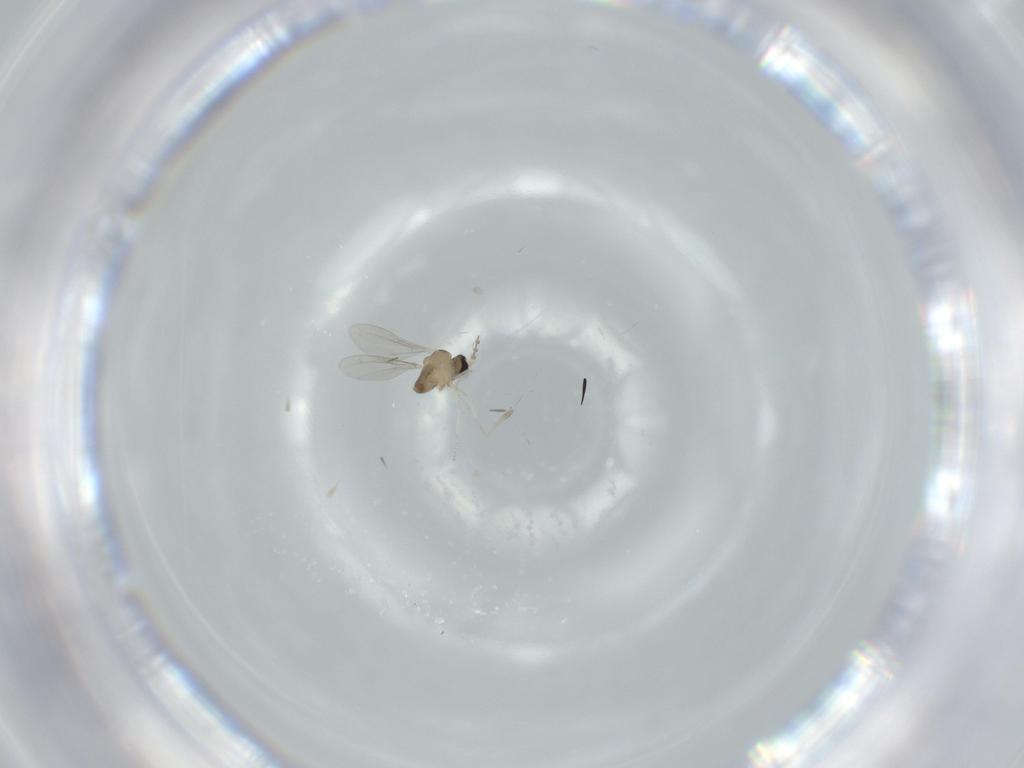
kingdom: Animalia
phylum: Arthropoda
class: Insecta
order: Diptera
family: Cecidomyiidae
